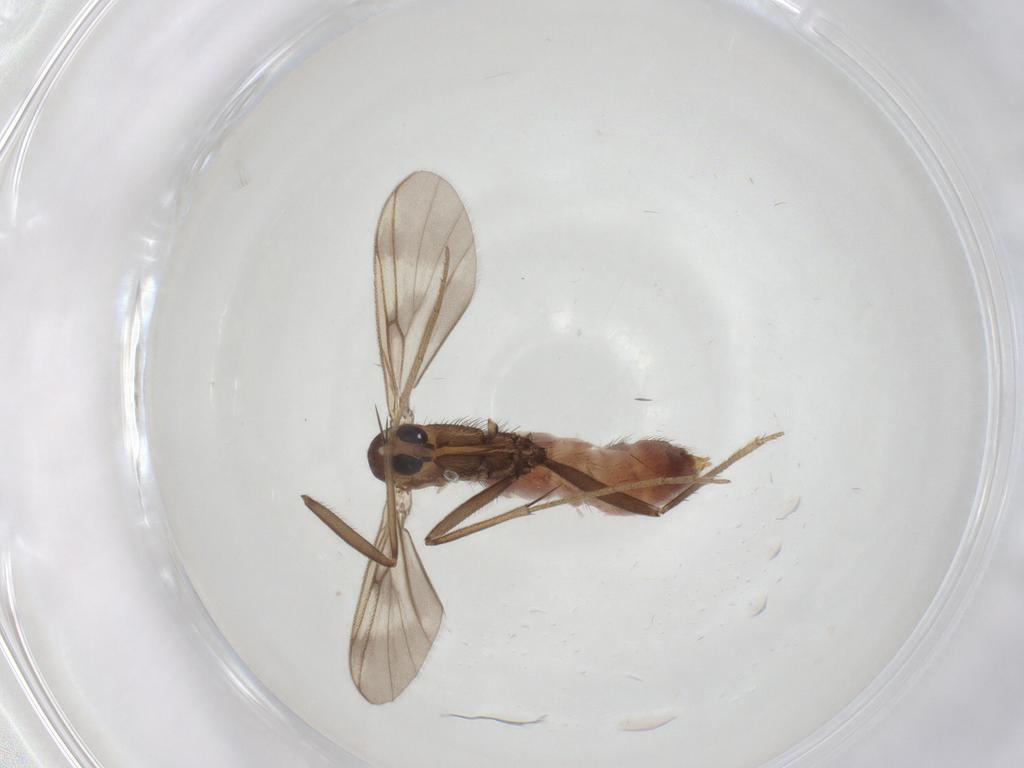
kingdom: Animalia
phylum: Arthropoda
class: Insecta
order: Diptera
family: Mycetophilidae
